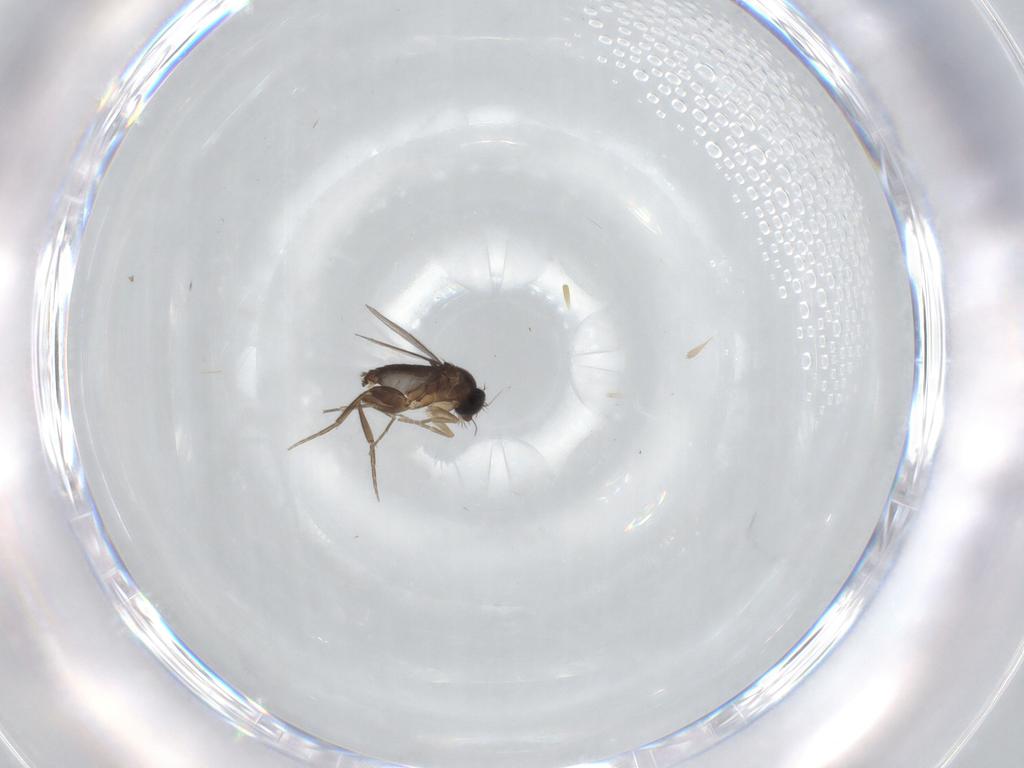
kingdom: Animalia
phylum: Arthropoda
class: Insecta
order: Diptera
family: Phoridae
